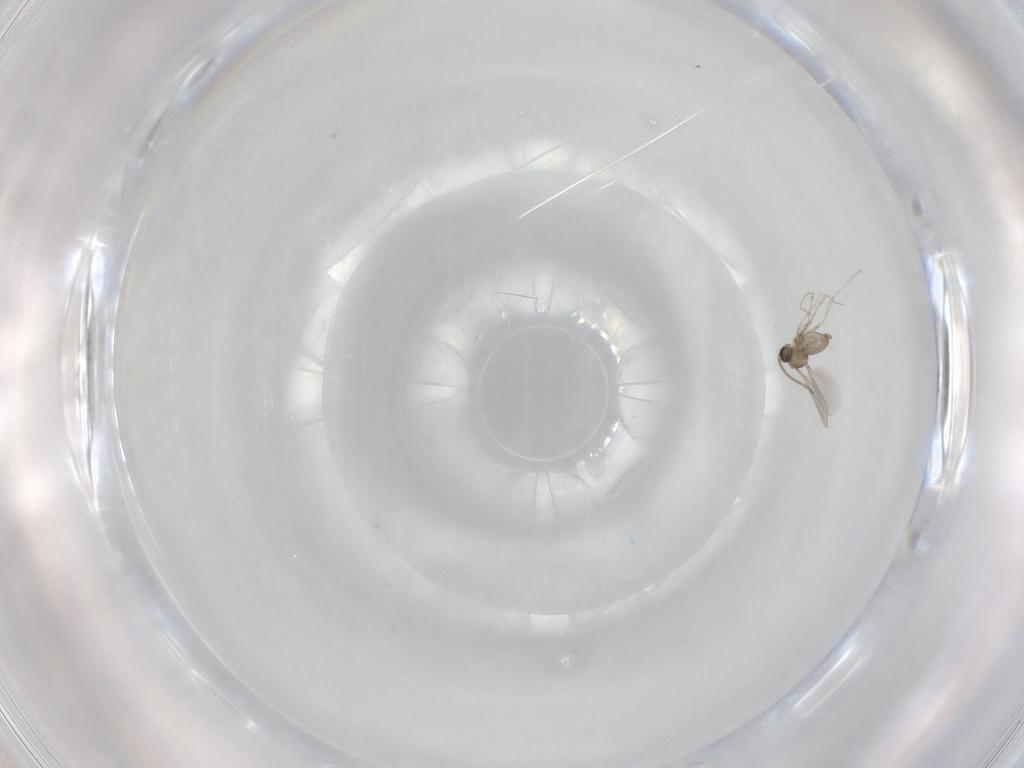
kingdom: Animalia
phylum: Arthropoda
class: Insecta
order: Diptera
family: Cecidomyiidae
